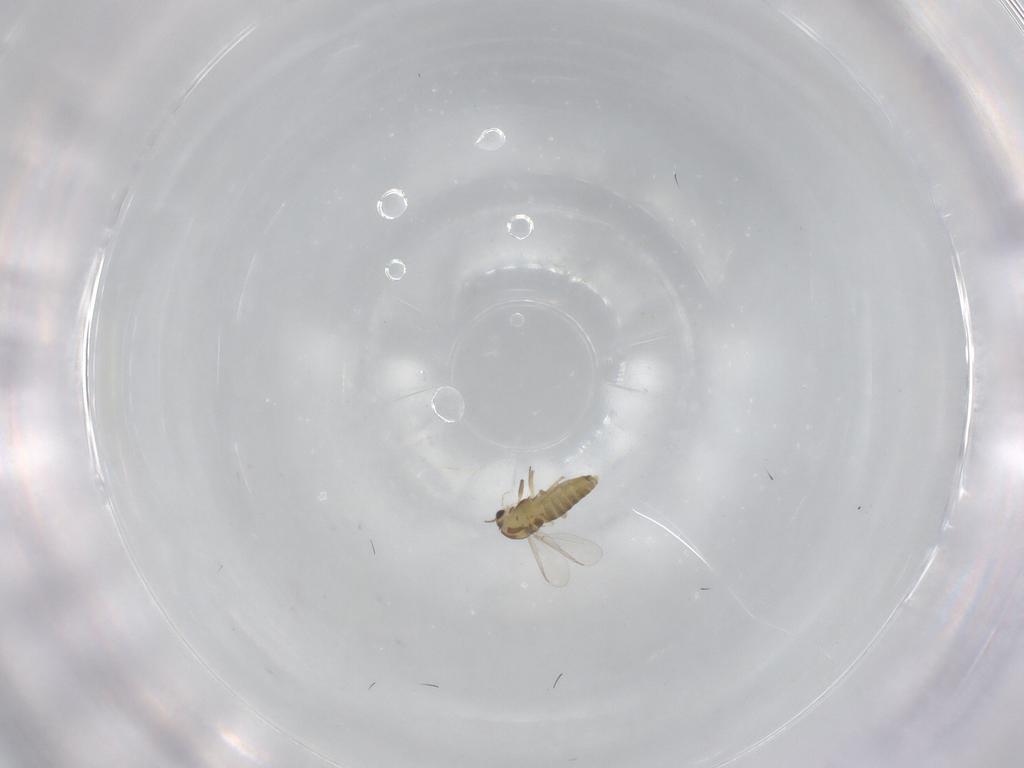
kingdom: Animalia
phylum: Arthropoda
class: Insecta
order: Diptera
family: Chironomidae
